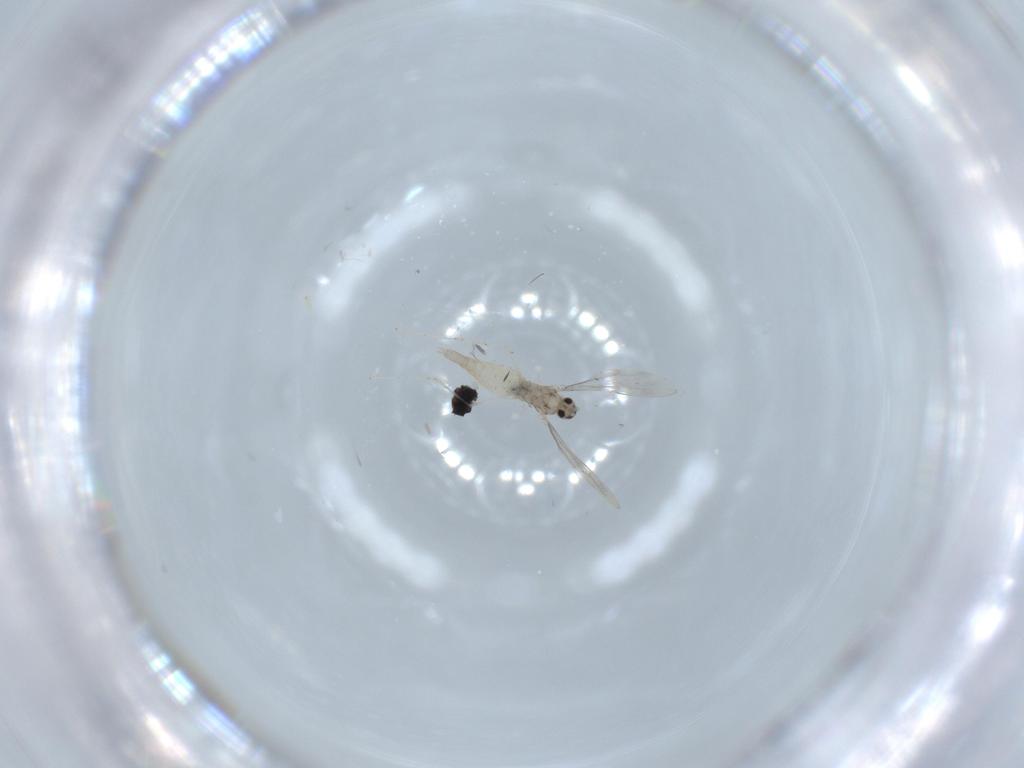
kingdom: Animalia
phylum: Arthropoda
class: Insecta
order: Diptera
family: Cecidomyiidae
